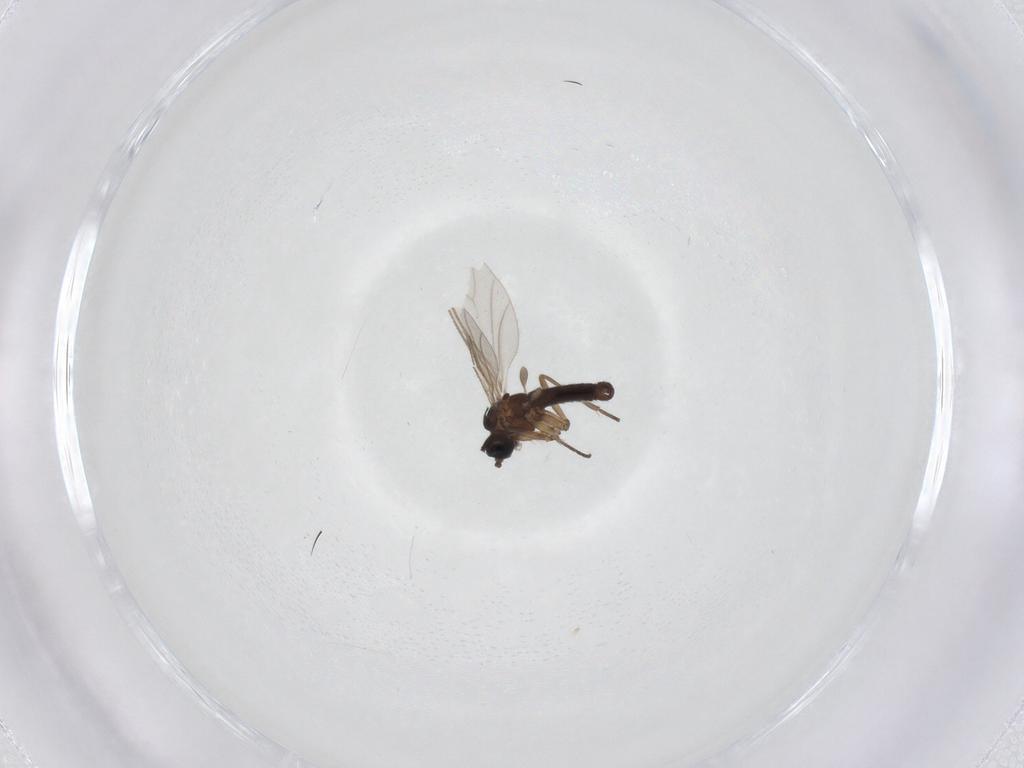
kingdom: Animalia
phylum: Arthropoda
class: Insecta
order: Diptera
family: Sciaridae
